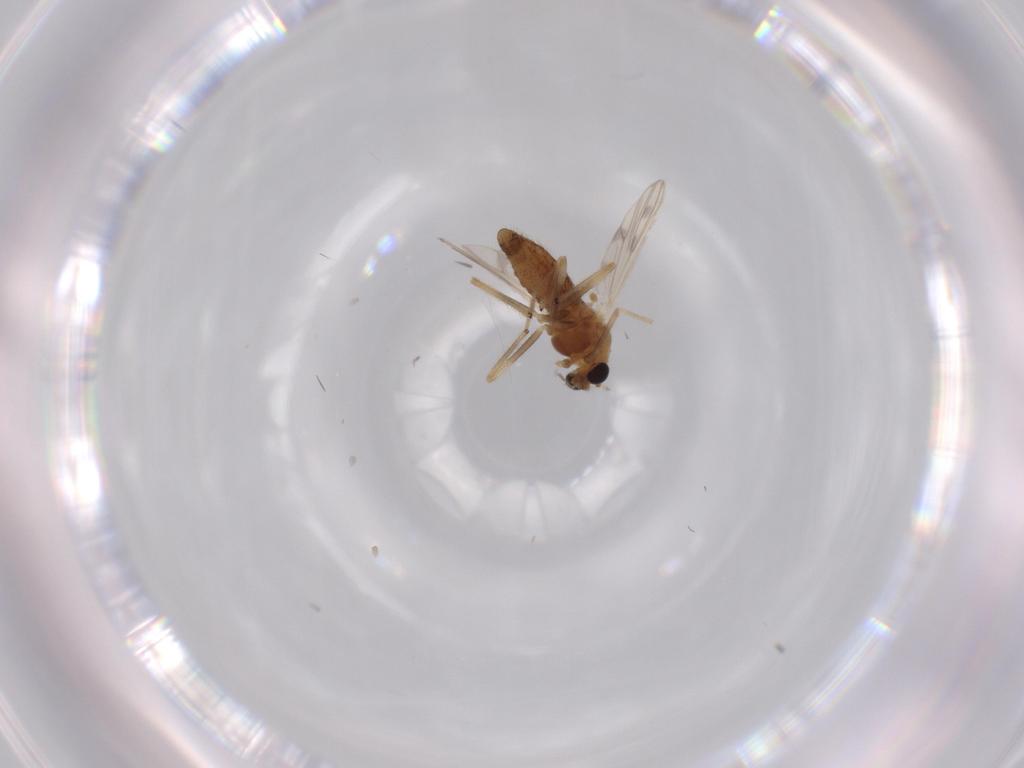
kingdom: Animalia
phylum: Arthropoda
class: Insecta
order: Diptera
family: Chironomidae
